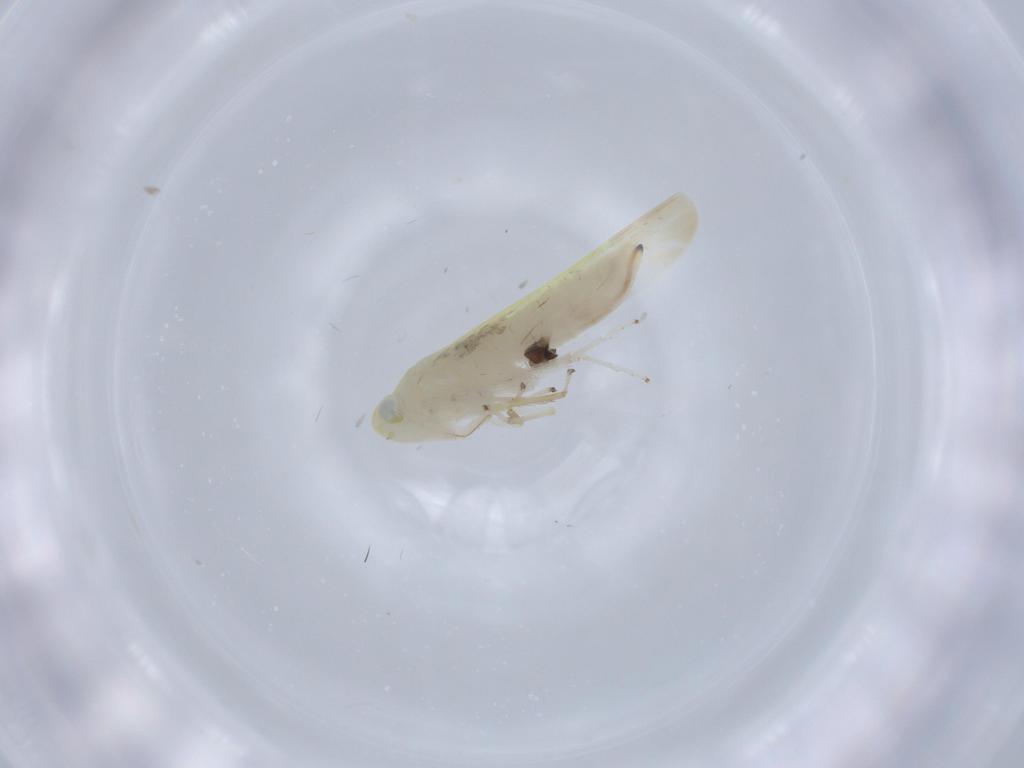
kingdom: Animalia
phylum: Arthropoda
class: Insecta
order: Hemiptera
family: Cicadellidae
